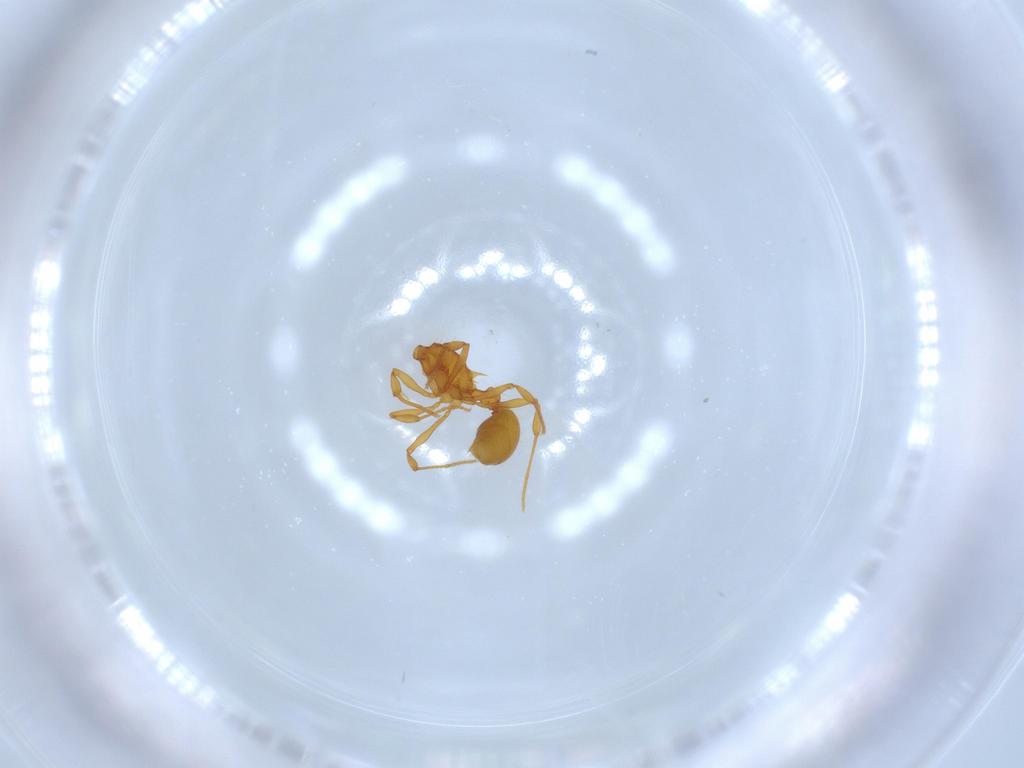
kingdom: Animalia
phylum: Arthropoda
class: Insecta
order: Hymenoptera
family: Formicidae
